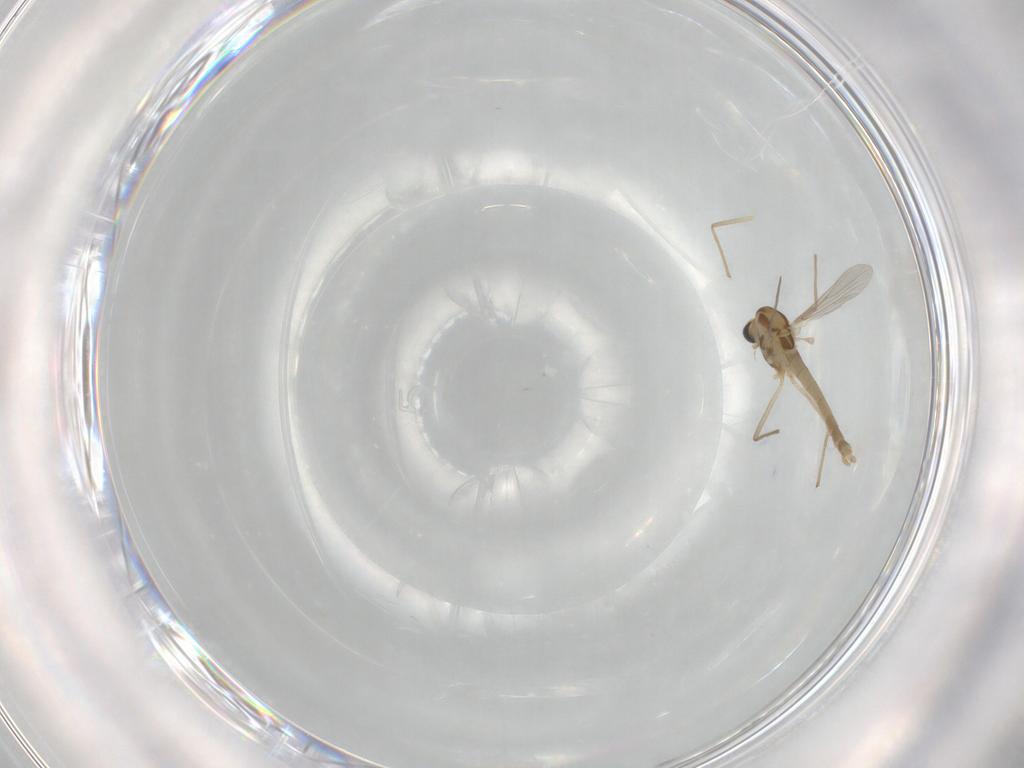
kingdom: Animalia
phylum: Arthropoda
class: Insecta
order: Diptera
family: Chironomidae
